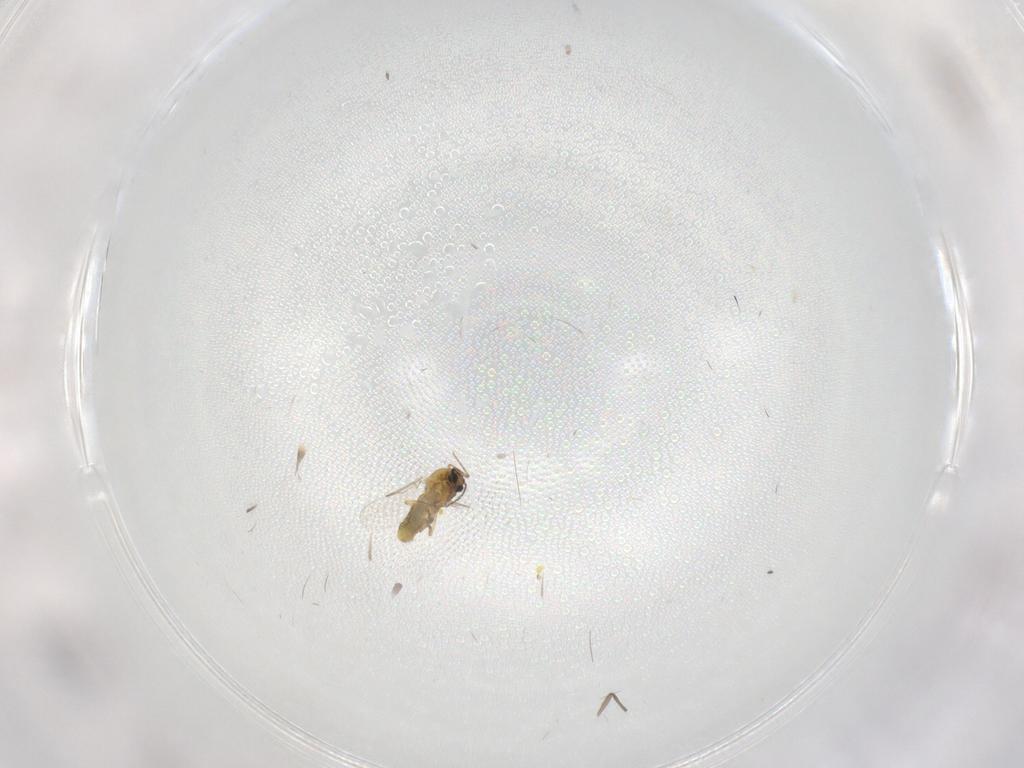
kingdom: Animalia
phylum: Arthropoda
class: Insecta
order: Diptera
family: Ceratopogonidae
